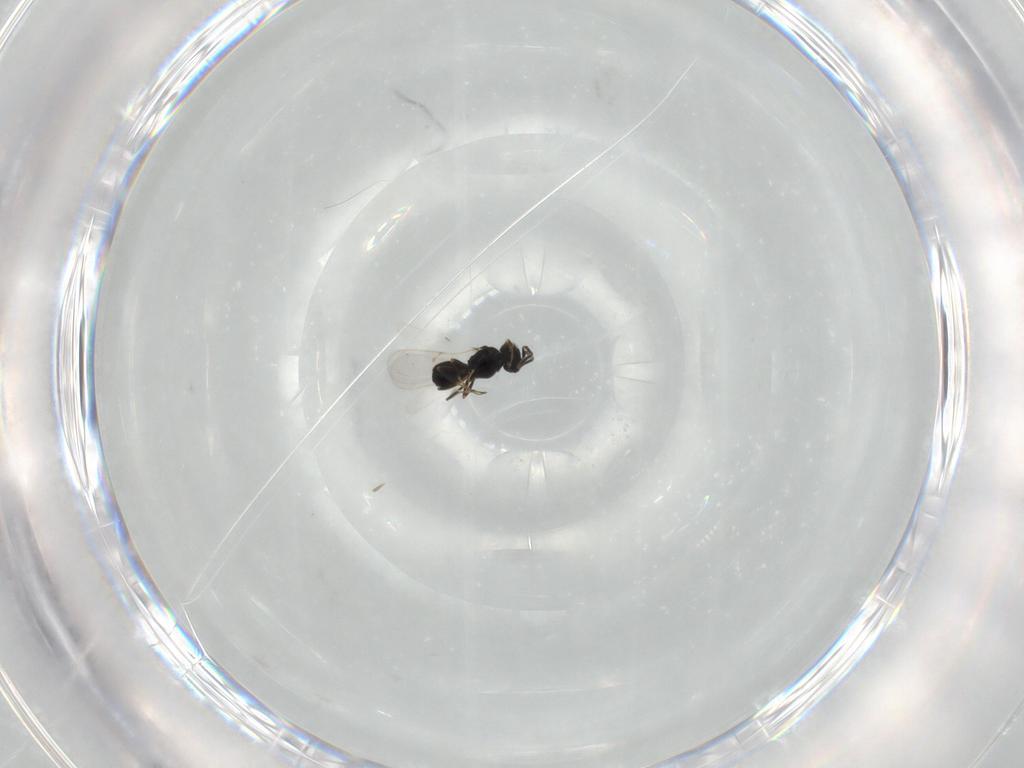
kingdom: Animalia
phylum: Arthropoda
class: Insecta
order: Hymenoptera
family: Scelionidae
